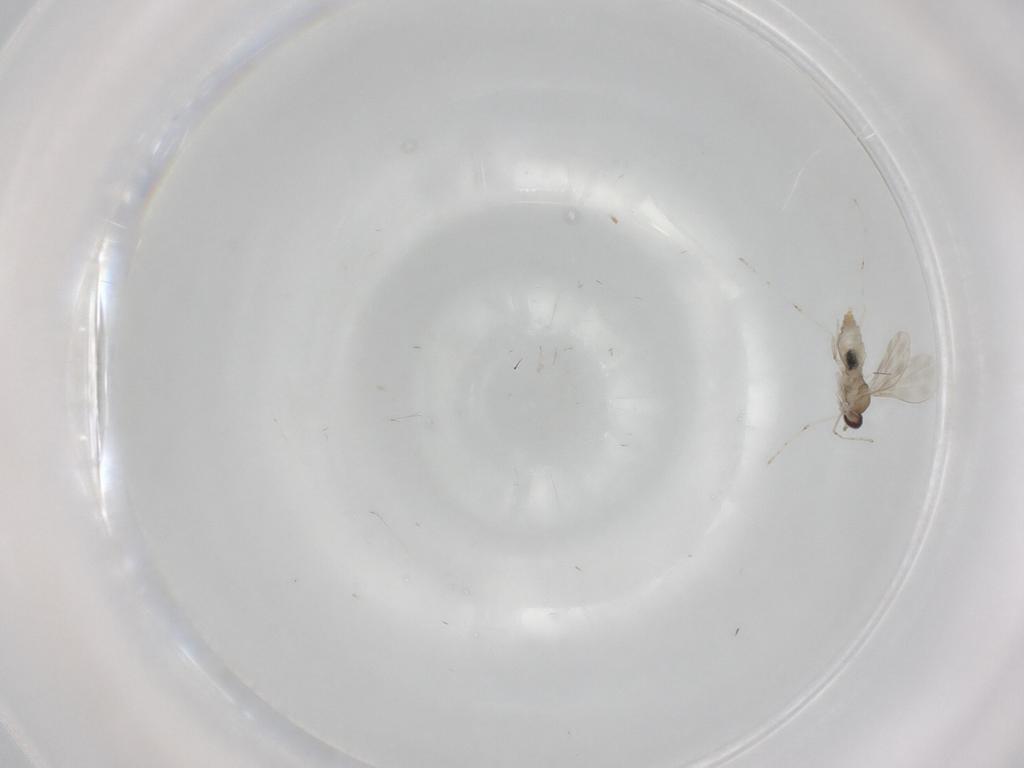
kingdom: Animalia
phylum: Arthropoda
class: Insecta
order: Diptera
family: Cecidomyiidae
